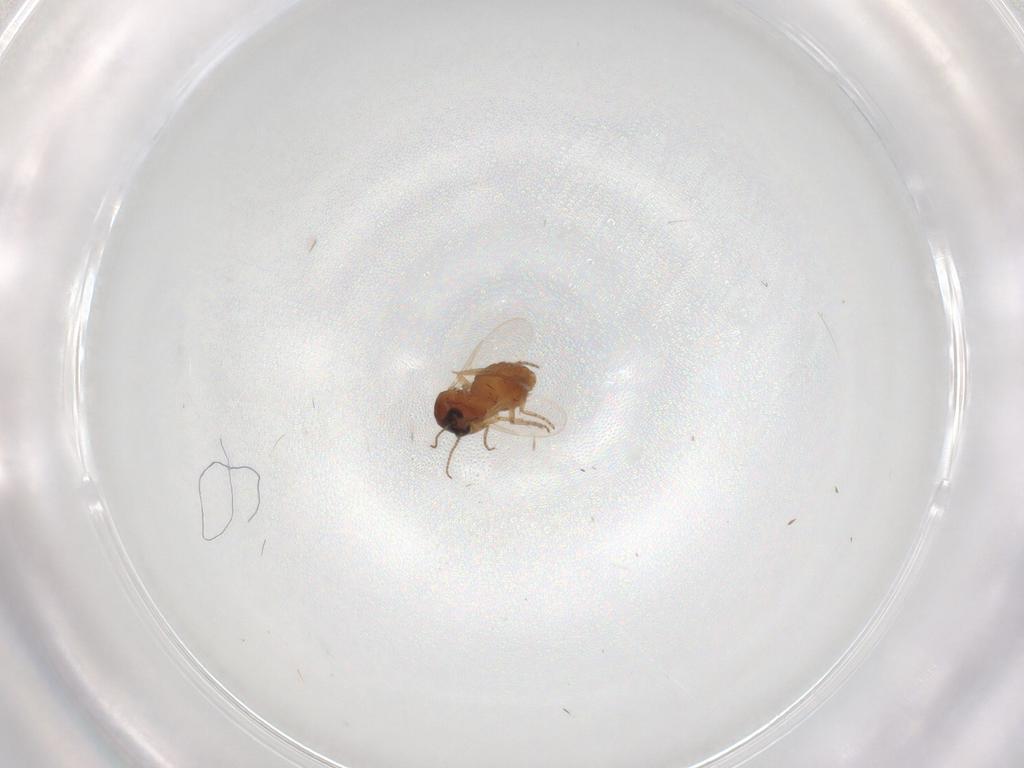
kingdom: Animalia
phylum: Arthropoda
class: Insecta
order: Diptera
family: Ceratopogonidae
